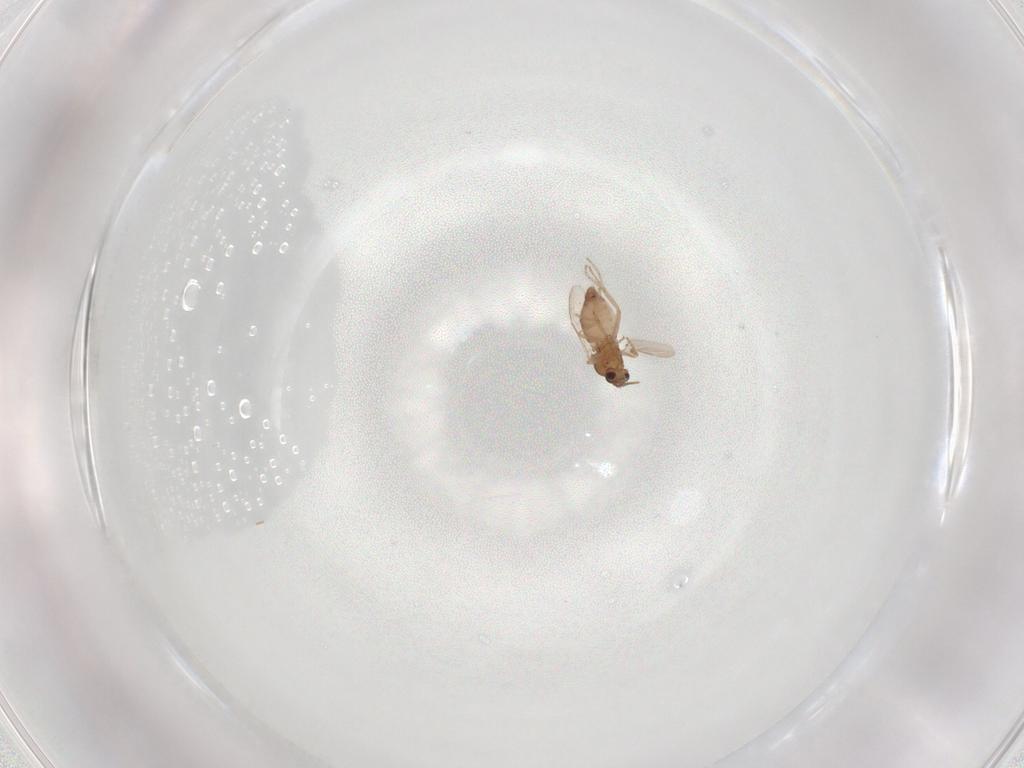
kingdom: Animalia
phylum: Arthropoda
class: Insecta
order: Diptera
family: Ceratopogonidae
